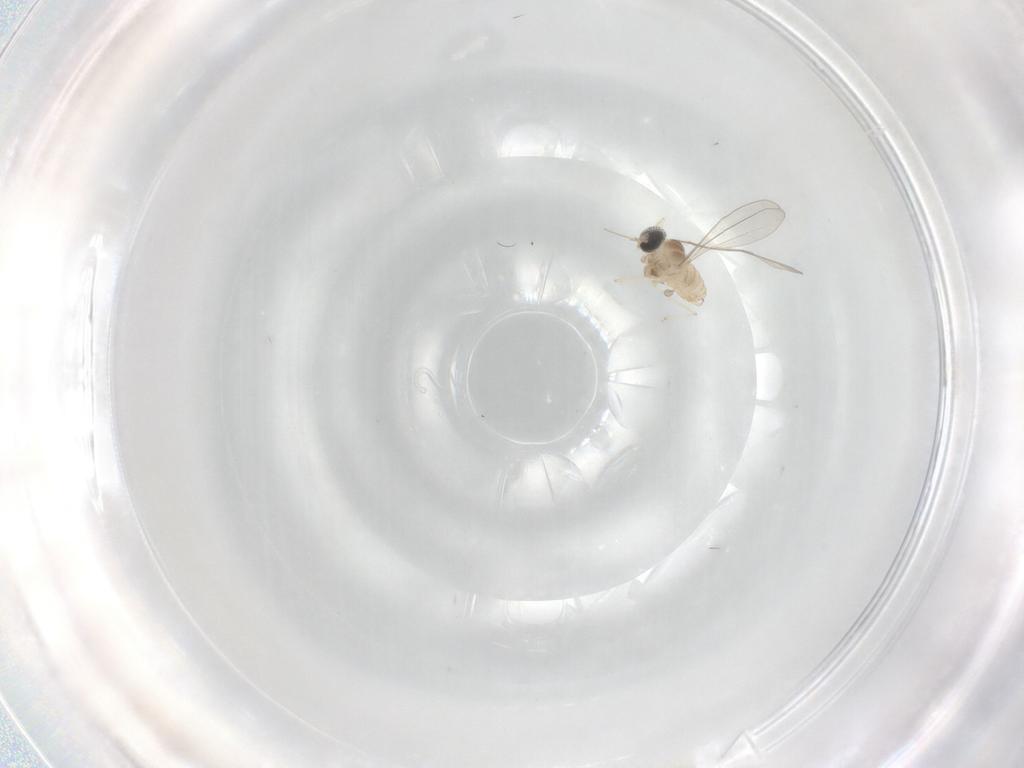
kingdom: Animalia
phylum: Arthropoda
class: Insecta
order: Diptera
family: Cecidomyiidae
